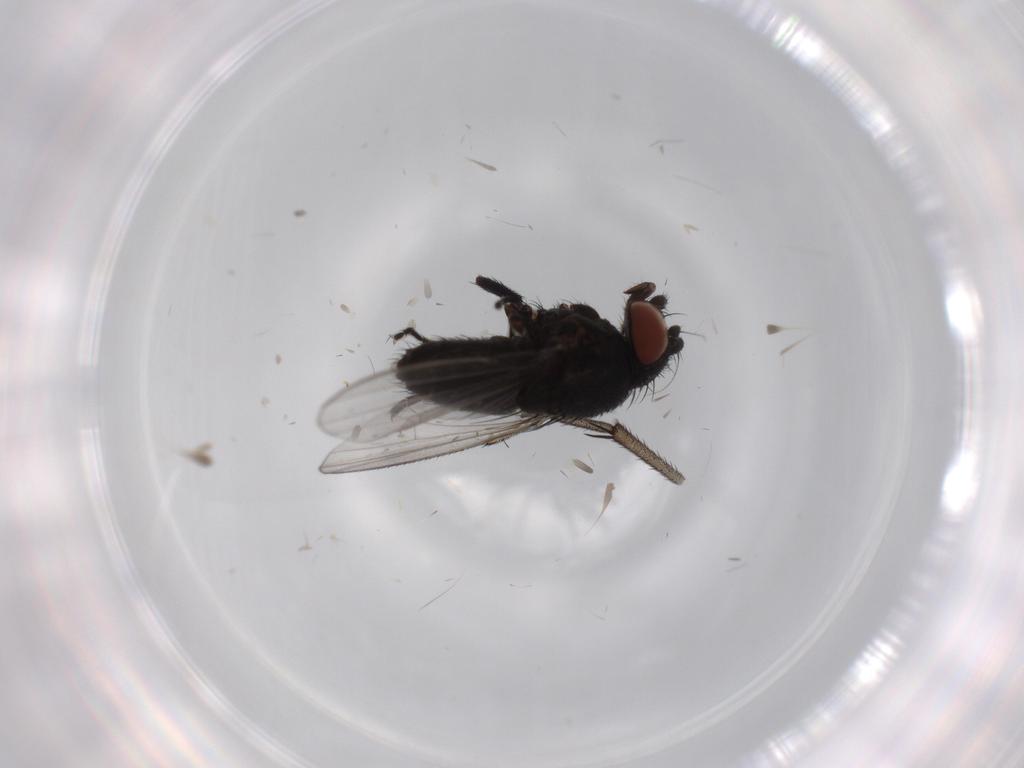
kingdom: Animalia
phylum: Arthropoda
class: Insecta
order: Diptera
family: Milichiidae
